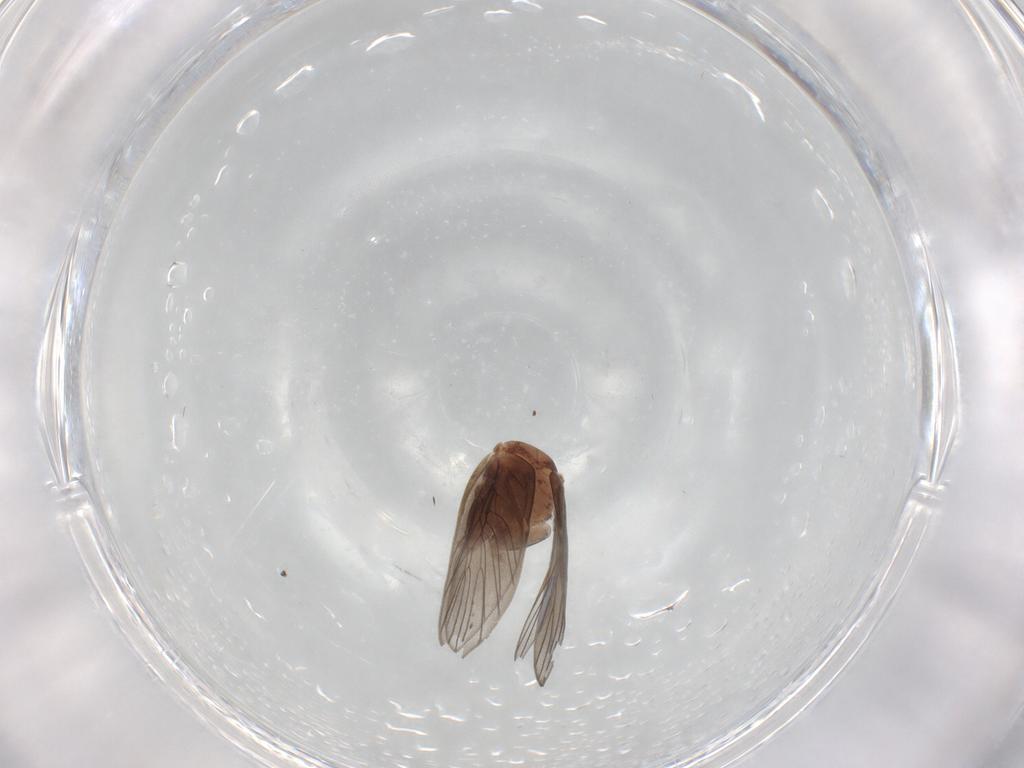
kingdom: Animalia
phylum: Arthropoda
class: Insecta
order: Psocodea
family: Lepidopsocidae
